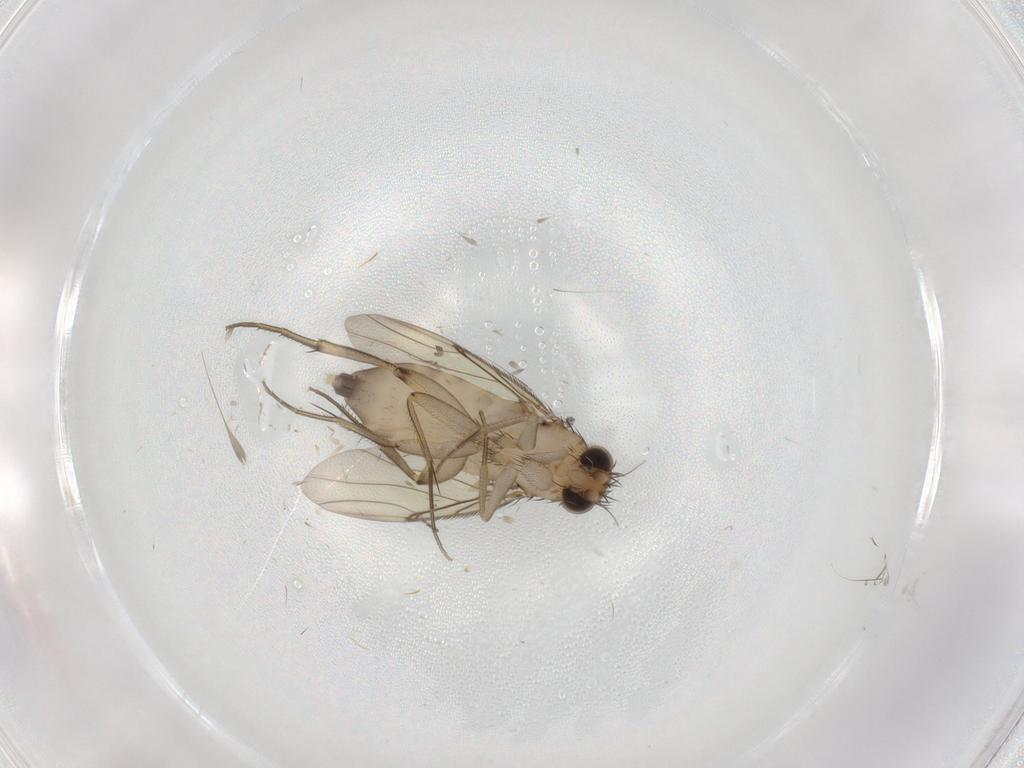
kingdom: Animalia
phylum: Arthropoda
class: Insecta
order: Diptera
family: Phoridae
